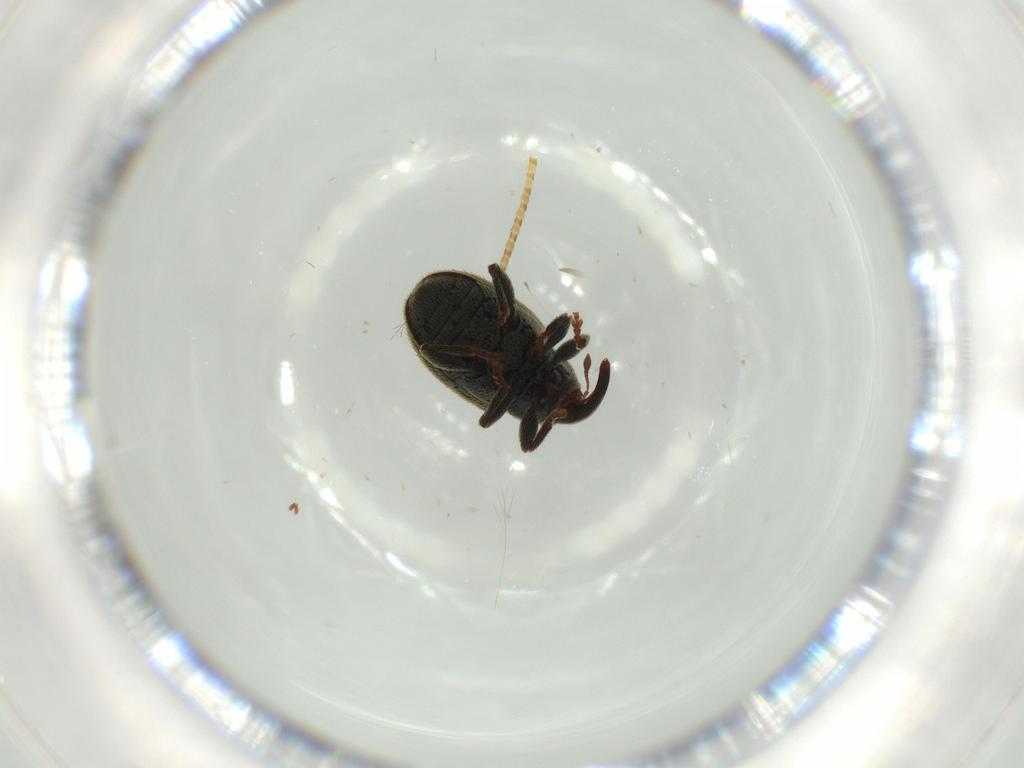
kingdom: Animalia
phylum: Arthropoda
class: Insecta
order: Coleoptera
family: Curculionidae
